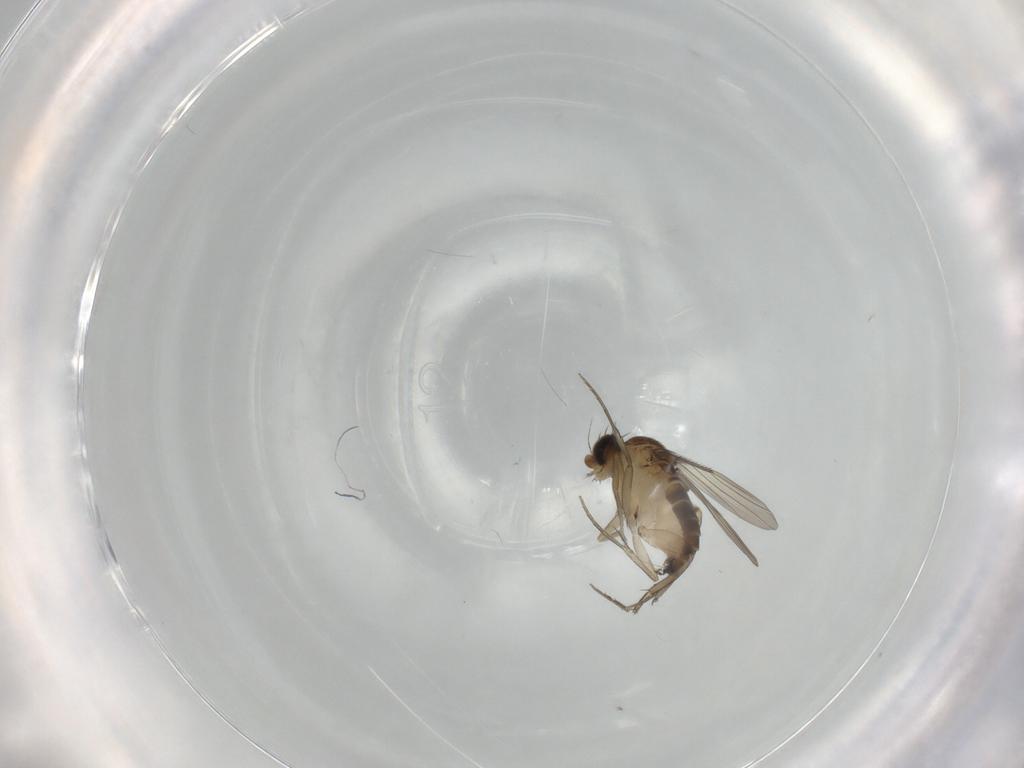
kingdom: Animalia
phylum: Arthropoda
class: Insecta
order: Diptera
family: Phoridae
